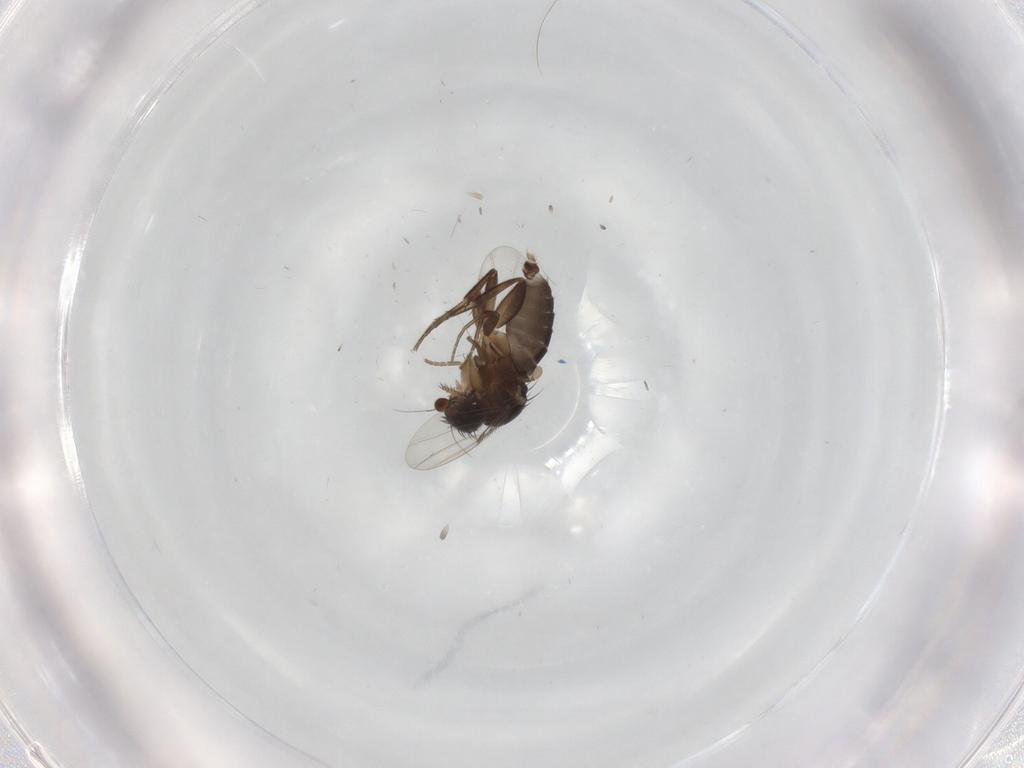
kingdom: Animalia
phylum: Arthropoda
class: Insecta
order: Diptera
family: Phoridae
